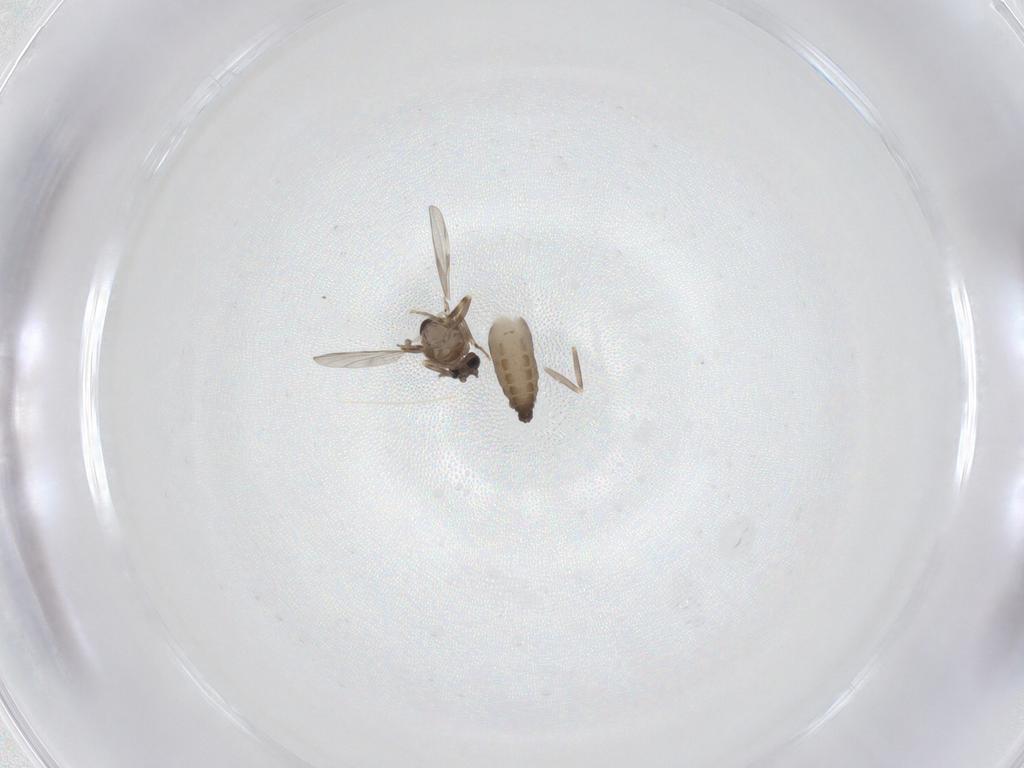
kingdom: Animalia
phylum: Arthropoda
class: Insecta
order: Diptera
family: Ceratopogonidae
